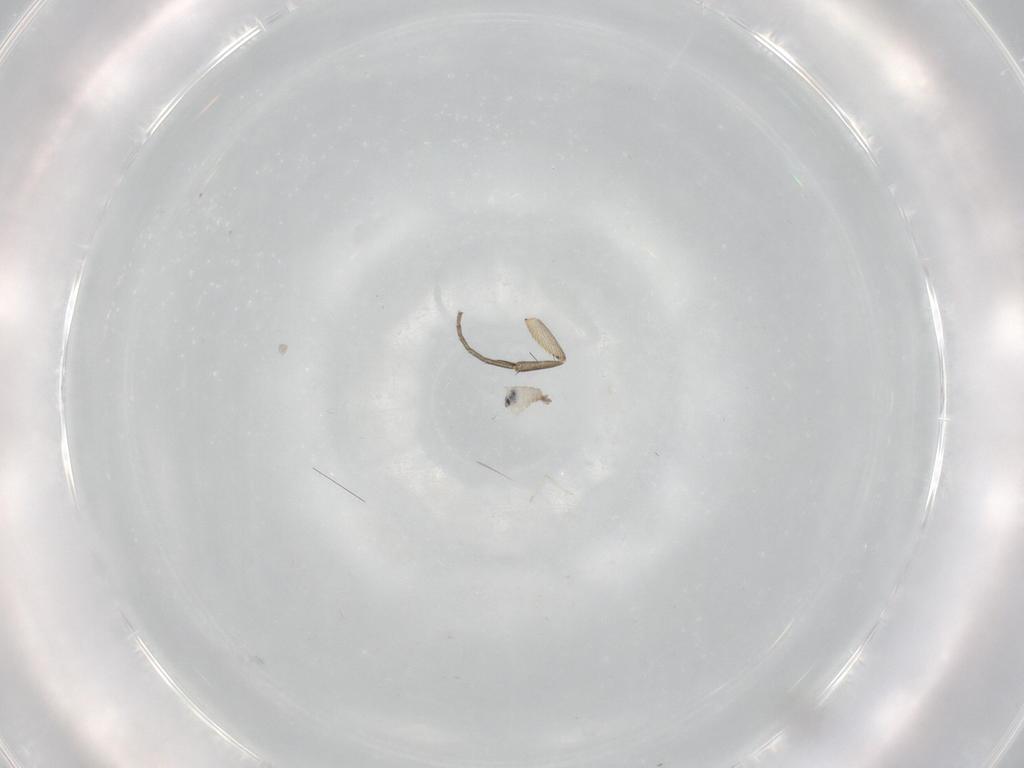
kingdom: Animalia
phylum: Arthropoda
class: Insecta
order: Diptera
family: Cecidomyiidae
